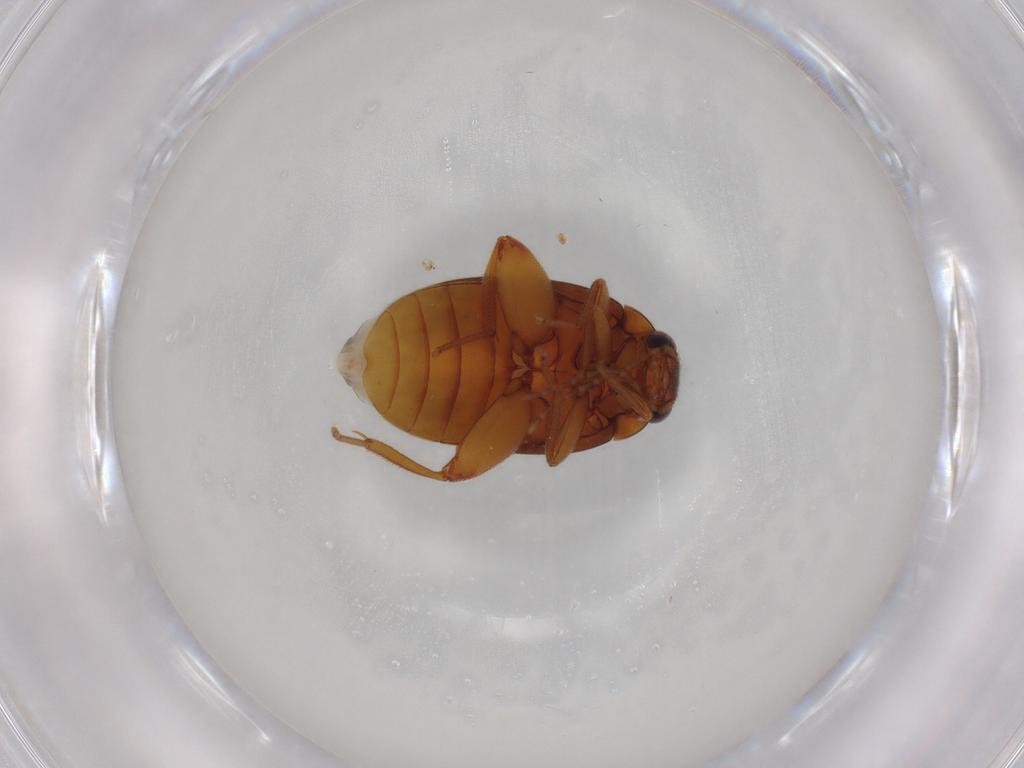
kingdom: Animalia
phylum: Arthropoda
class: Insecta
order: Coleoptera
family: Scirtidae
